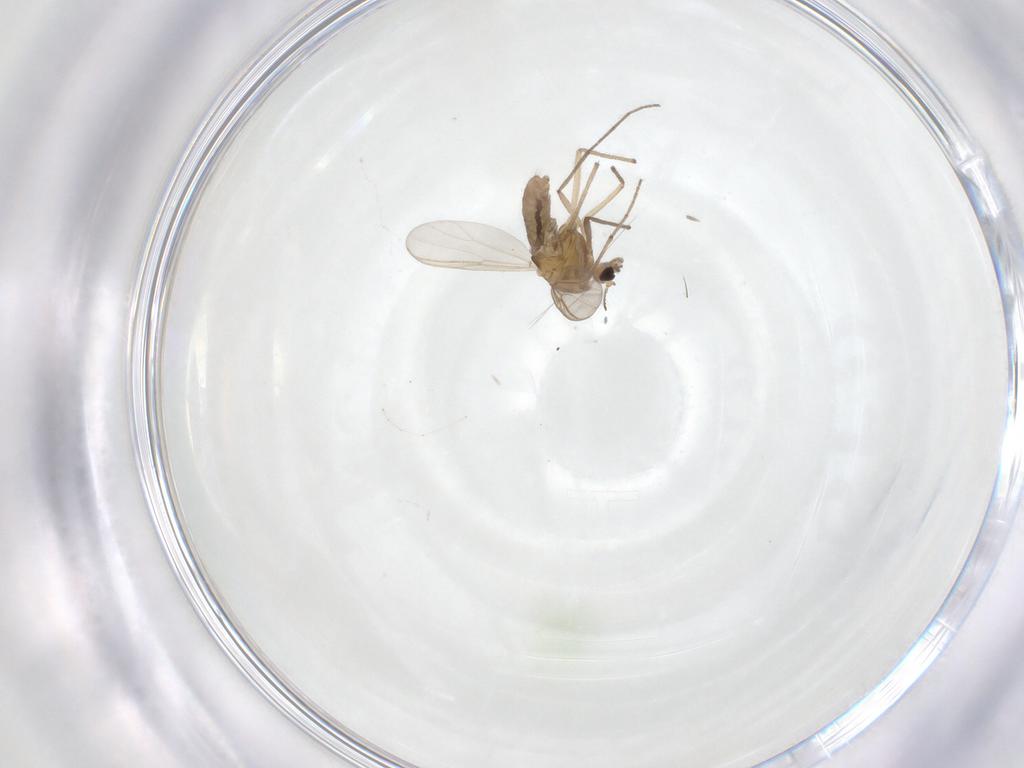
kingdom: Animalia
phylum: Arthropoda
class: Insecta
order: Diptera
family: Chironomidae
